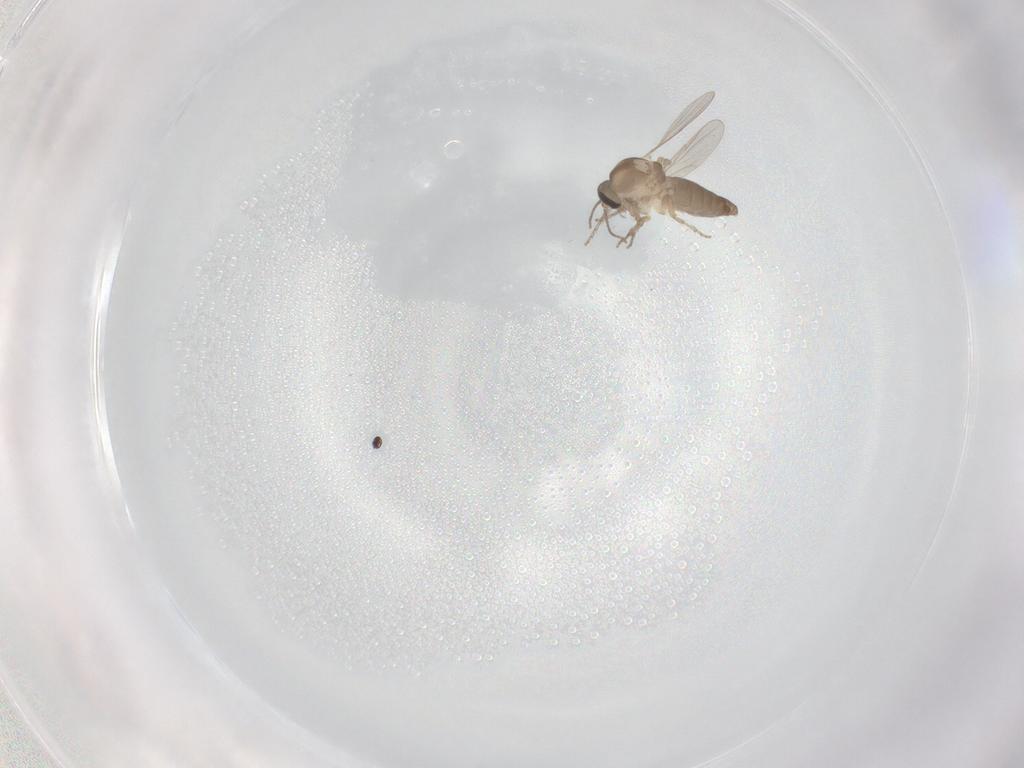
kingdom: Animalia
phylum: Arthropoda
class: Insecta
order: Diptera
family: Ceratopogonidae
